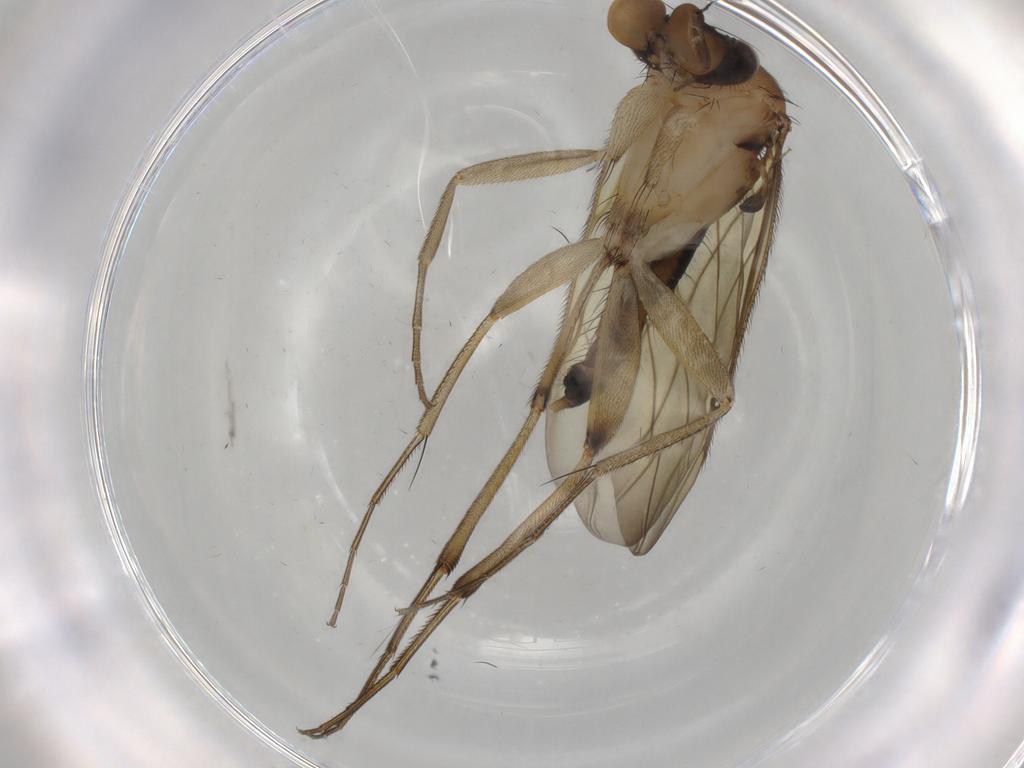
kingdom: Animalia
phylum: Arthropoda
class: Insecta
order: Diptera
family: Phoridae
